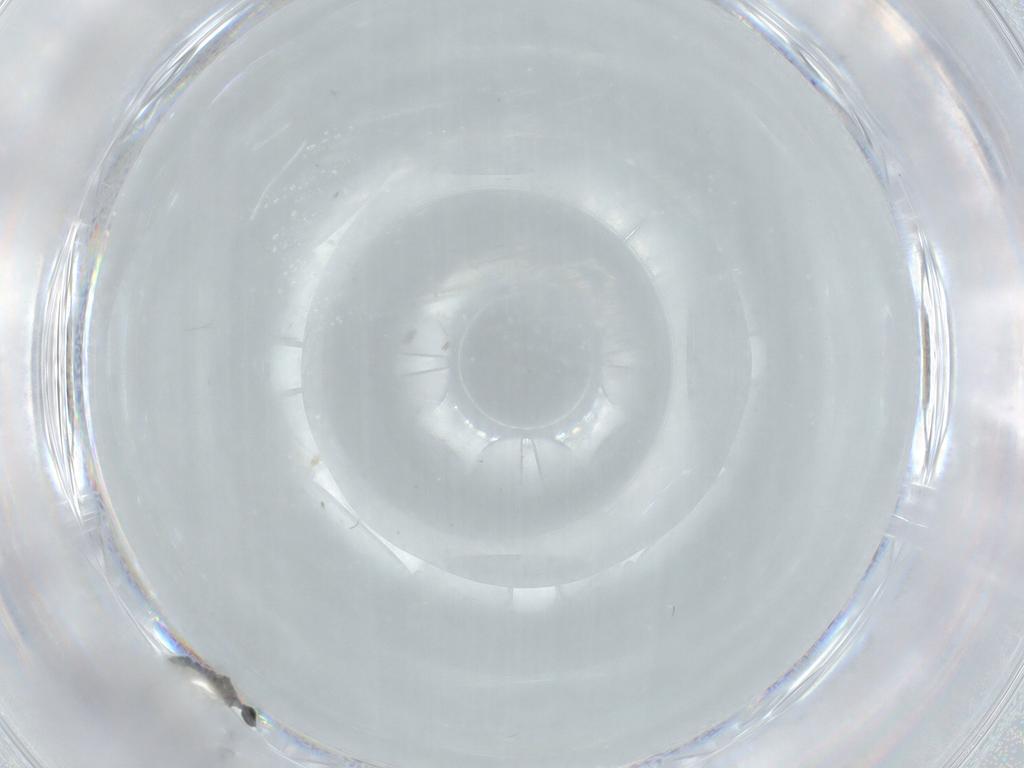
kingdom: Animalia
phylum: Arthropoda
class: Insecta
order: Diptera
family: Cecidomyiidae
